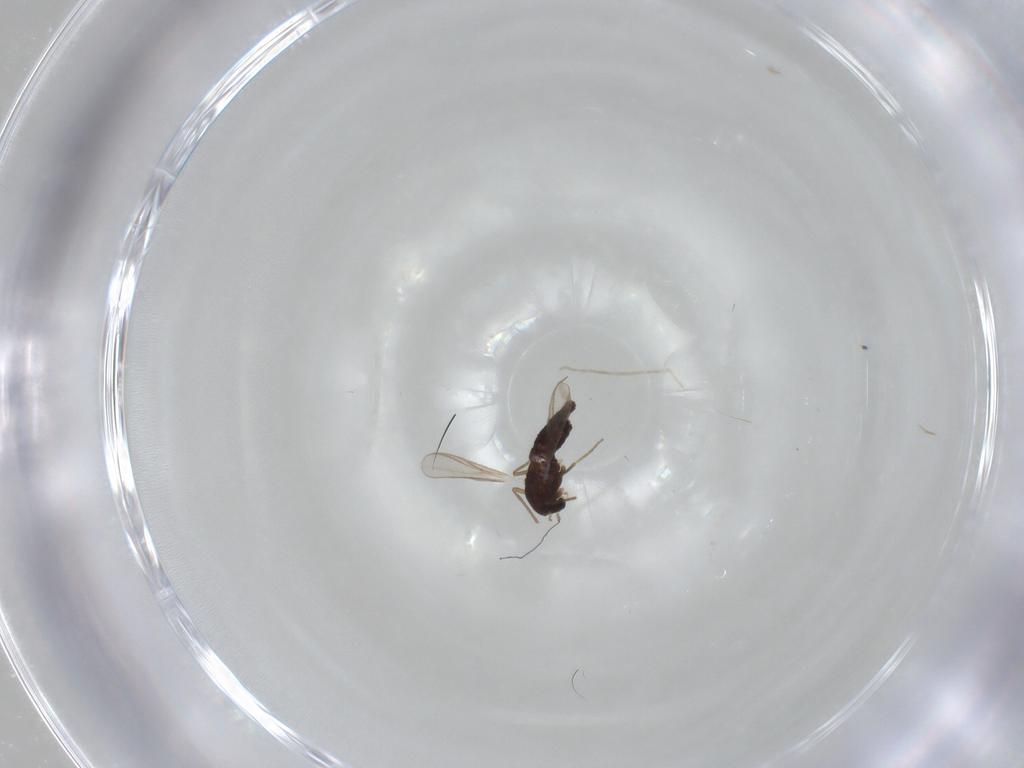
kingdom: Animalia
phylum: Arthropoda
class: Insecta
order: Diptera
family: Chironomidae
